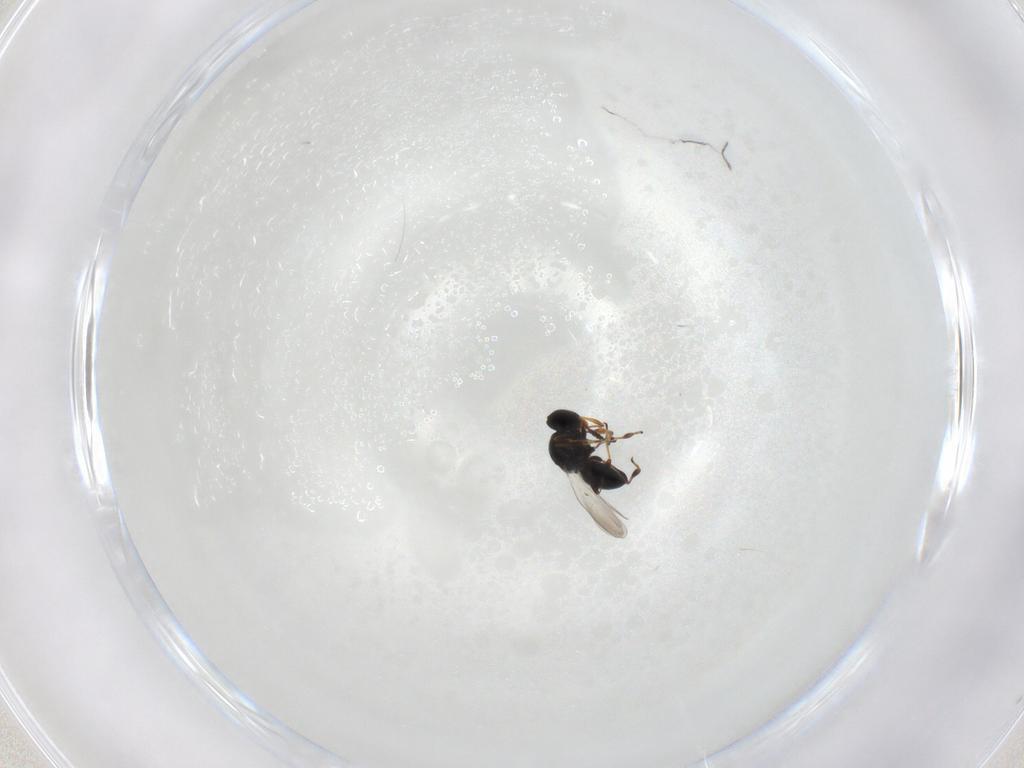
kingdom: Animalia
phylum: Arthropoda
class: Insecta
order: Hymenoptera
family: Platygastridae
